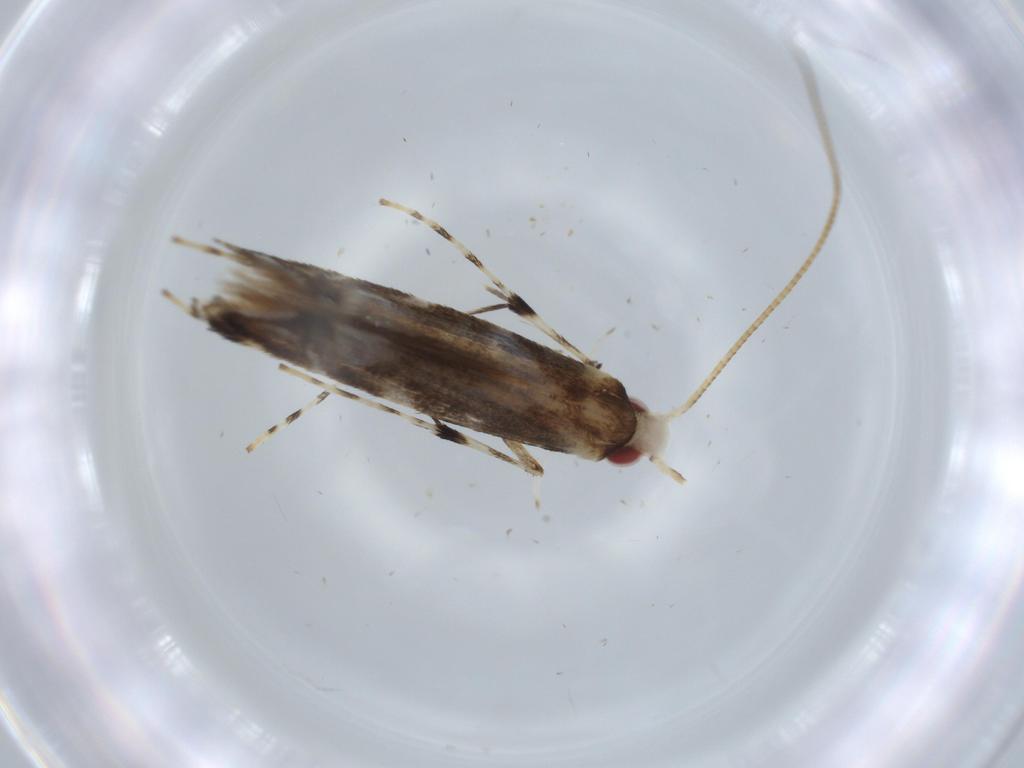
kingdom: Animalia
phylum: Arthropoda
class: Insecta
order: Lepidoptera
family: Gracillariidae
